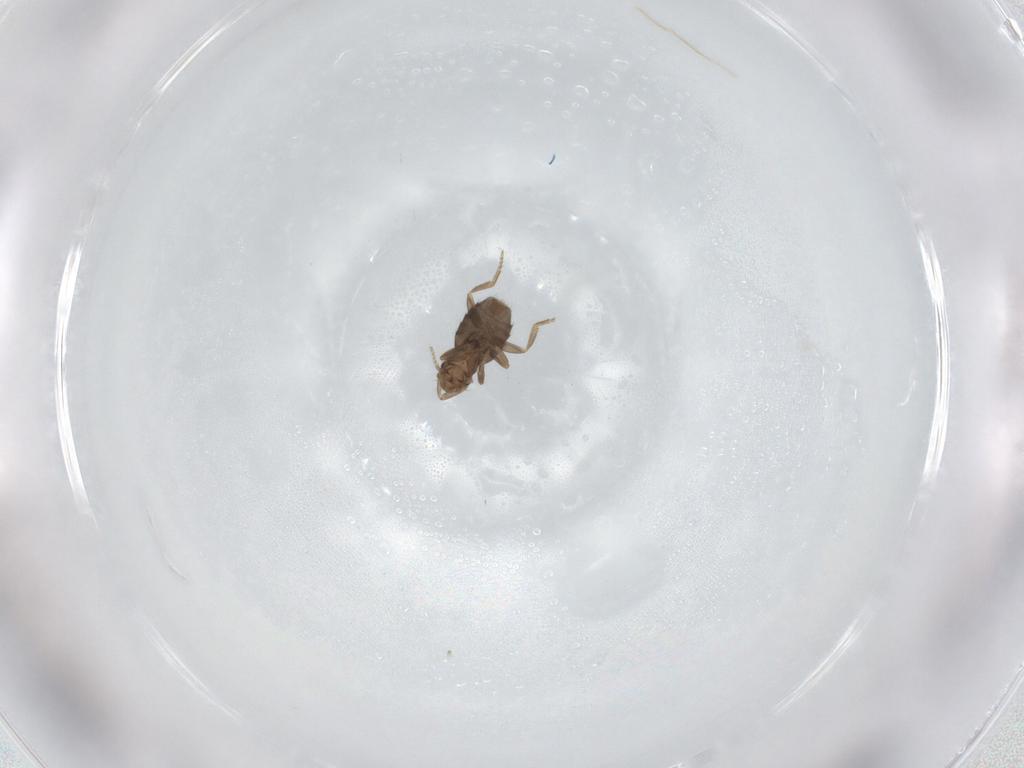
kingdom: Animalia
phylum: Arthropoda
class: Insecta
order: Diptera
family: Phoridae
